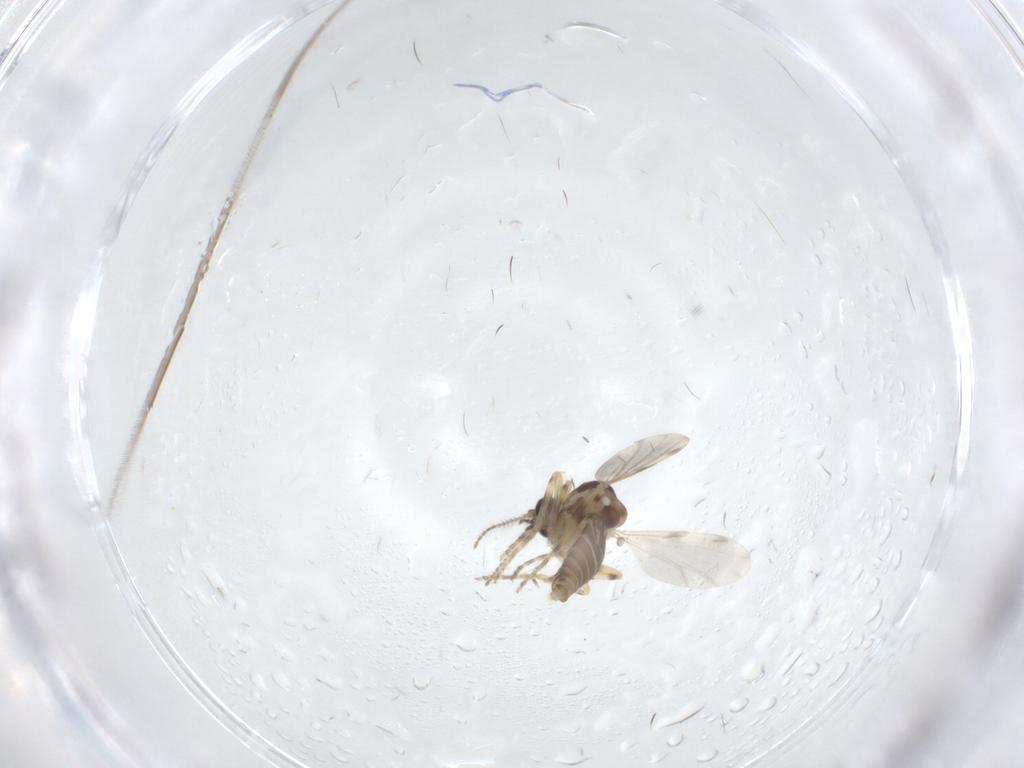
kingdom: Animalia
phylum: Arthropoda
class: Insecta
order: Diptera
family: Ceratopogonidae
